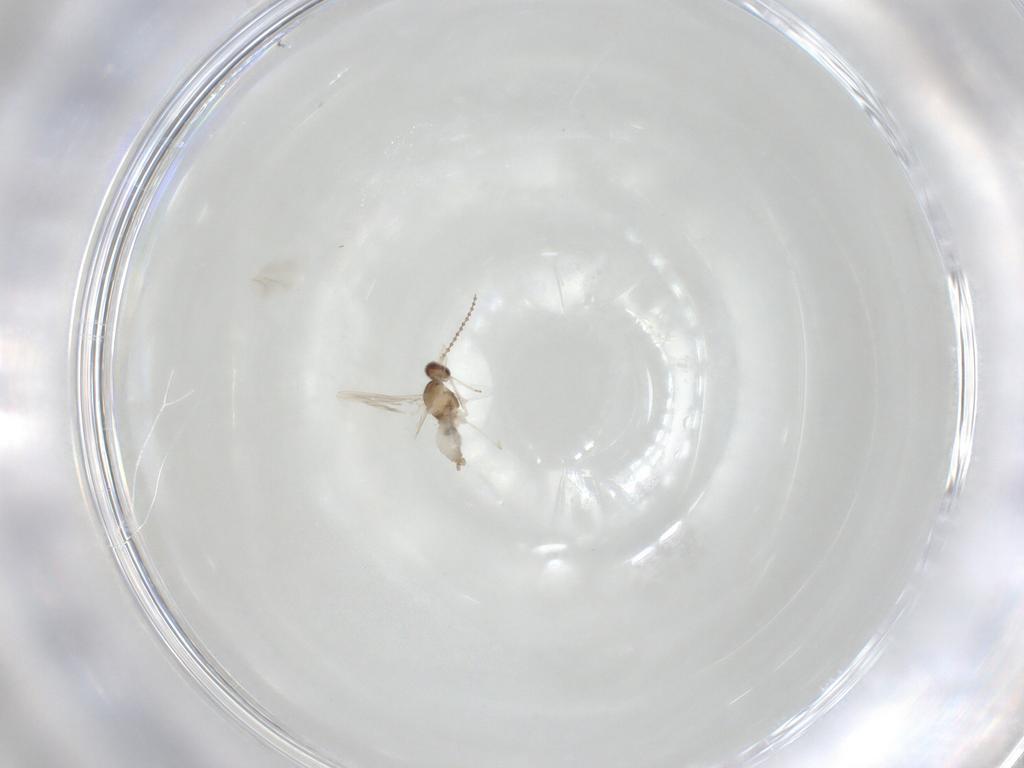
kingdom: Animalia
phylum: Arthropoda
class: Insecta
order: Diptera
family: Cecidomyiidae
